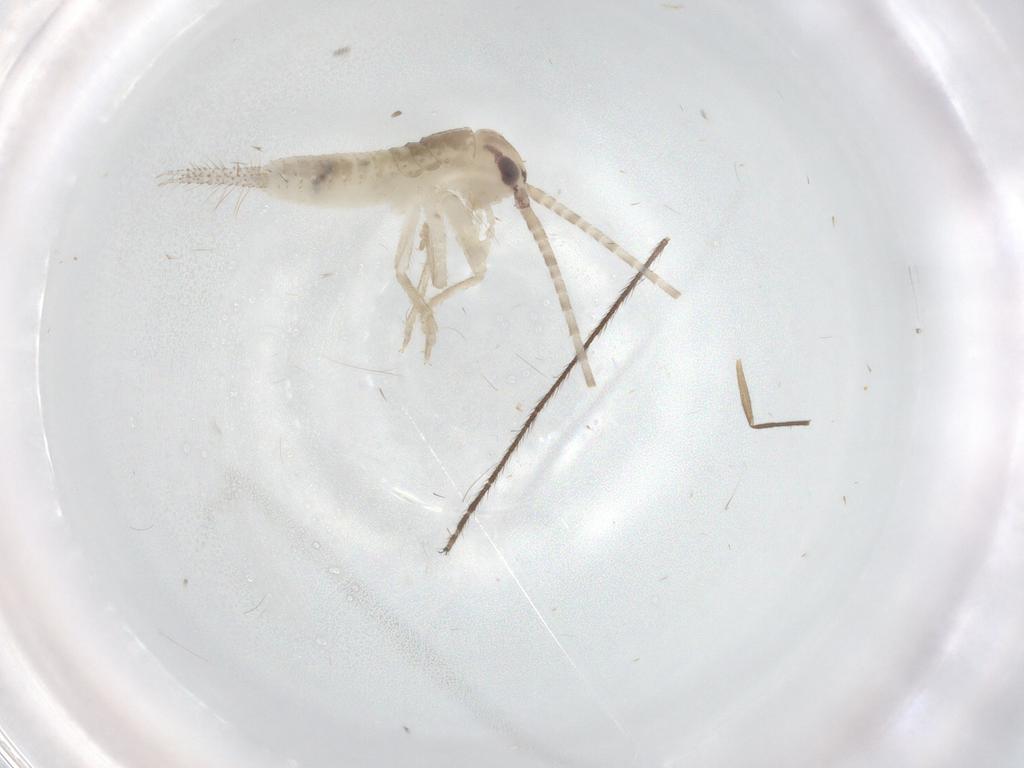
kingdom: Animalia
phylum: Arthropoda
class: Insecta
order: Orthoptera
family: Gryllidae
